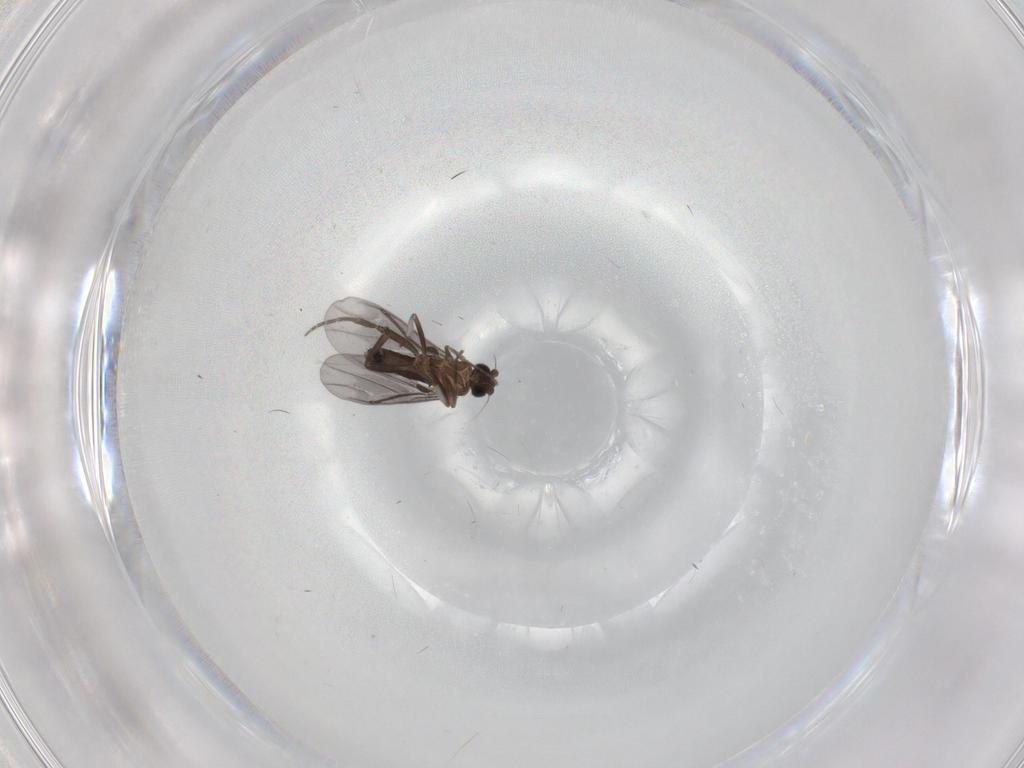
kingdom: Animalia
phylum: Arthropoda
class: Insecta
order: Diptera
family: Phoridae
